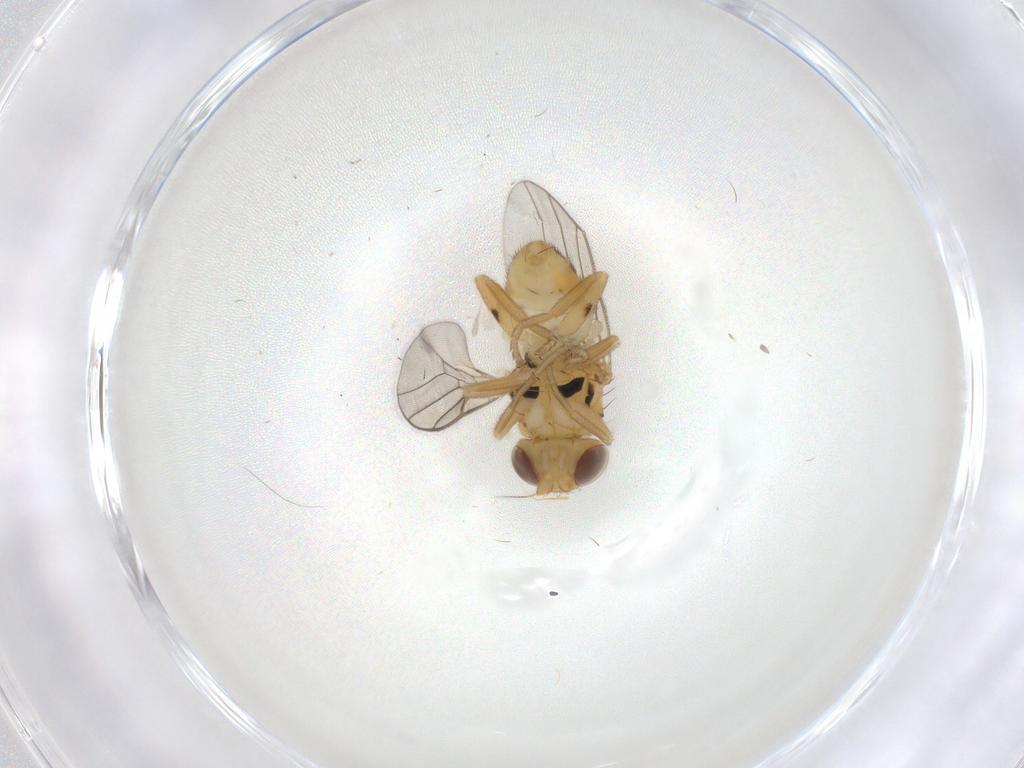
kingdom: Animalia
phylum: Arthropoda
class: Insecta
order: Diptera
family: Chloropidae
